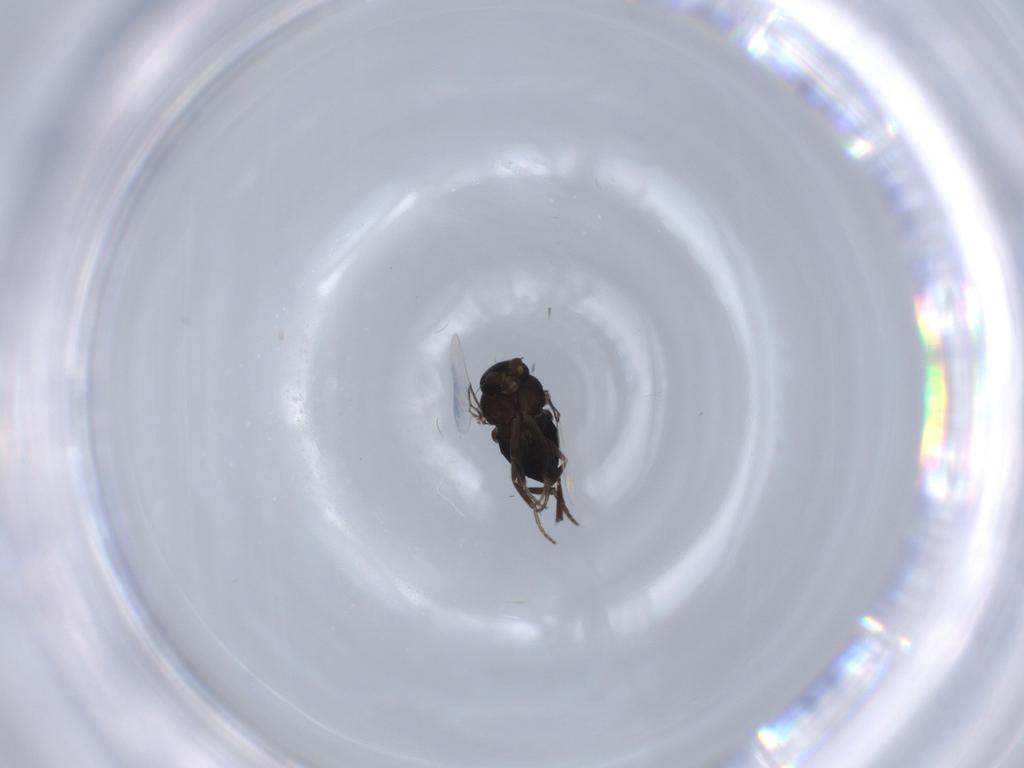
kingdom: Animalia
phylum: Arthropoda
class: Insecta
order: Diptera
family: Phoridae
